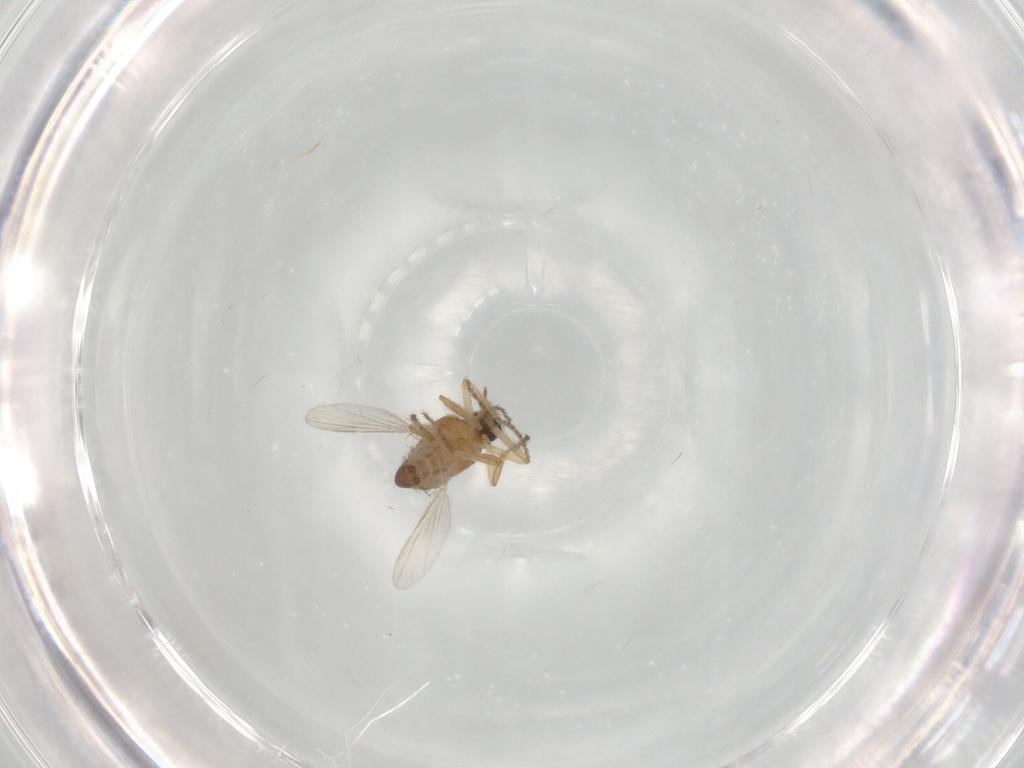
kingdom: Animalia
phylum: Arthropoda
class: Insecta
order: Diptera
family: Ceratopogonidae
